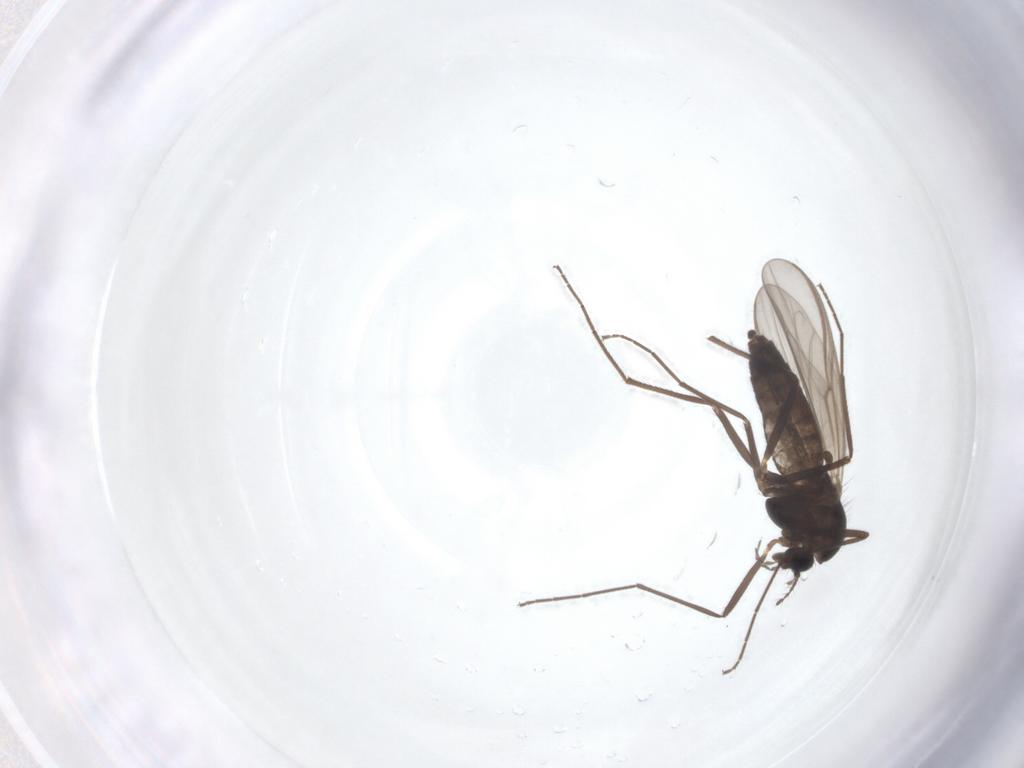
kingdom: Animalia
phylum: Arthropoda
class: Insecta
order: Diptera
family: Chironomidae
